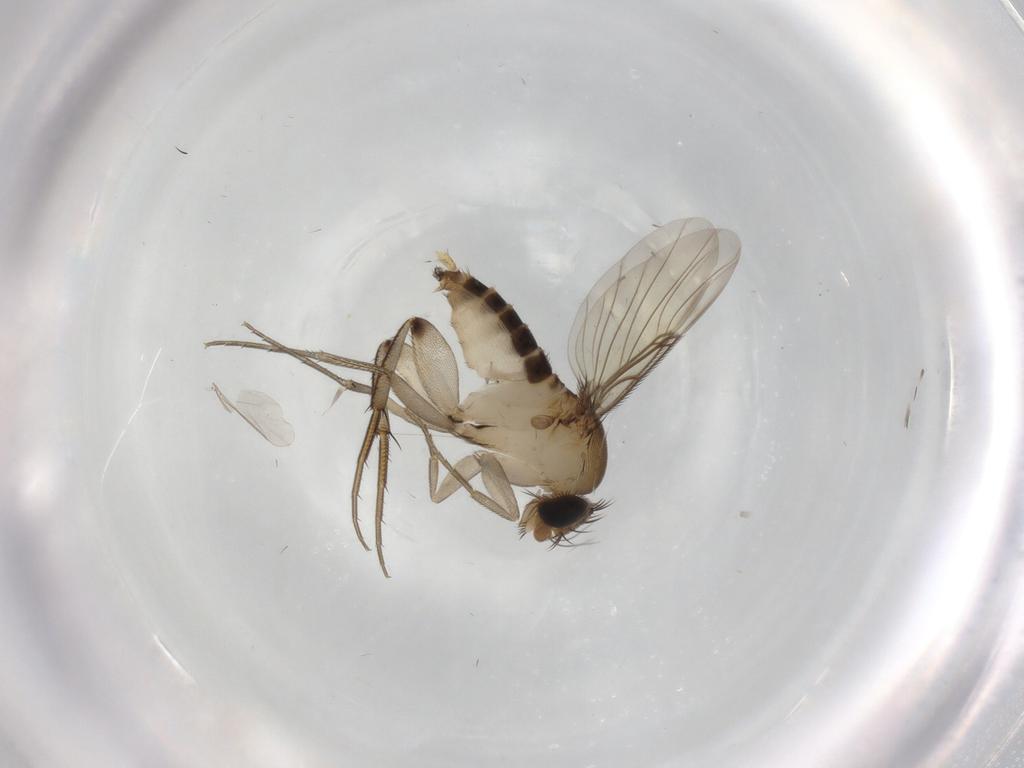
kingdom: Animalia
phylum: Arthropoda
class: Insecta
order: Diptera
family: Phoridae
